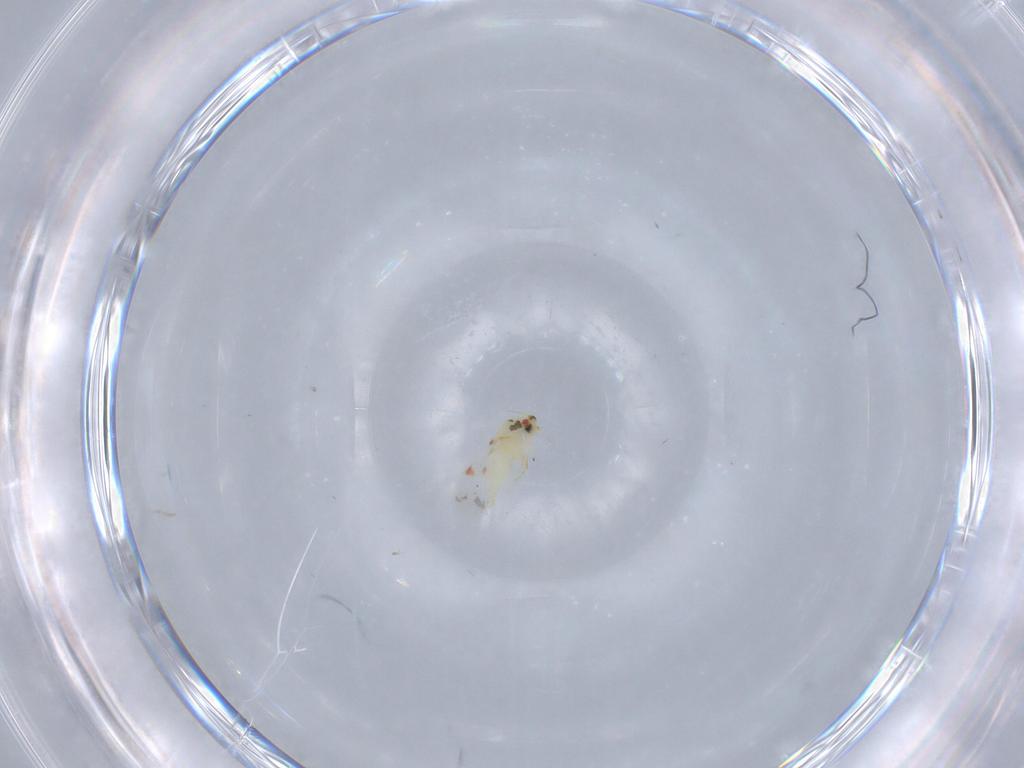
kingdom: Animalia
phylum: Arthropoda
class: Insecta
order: Hemiptera
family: Aleyrodidae
